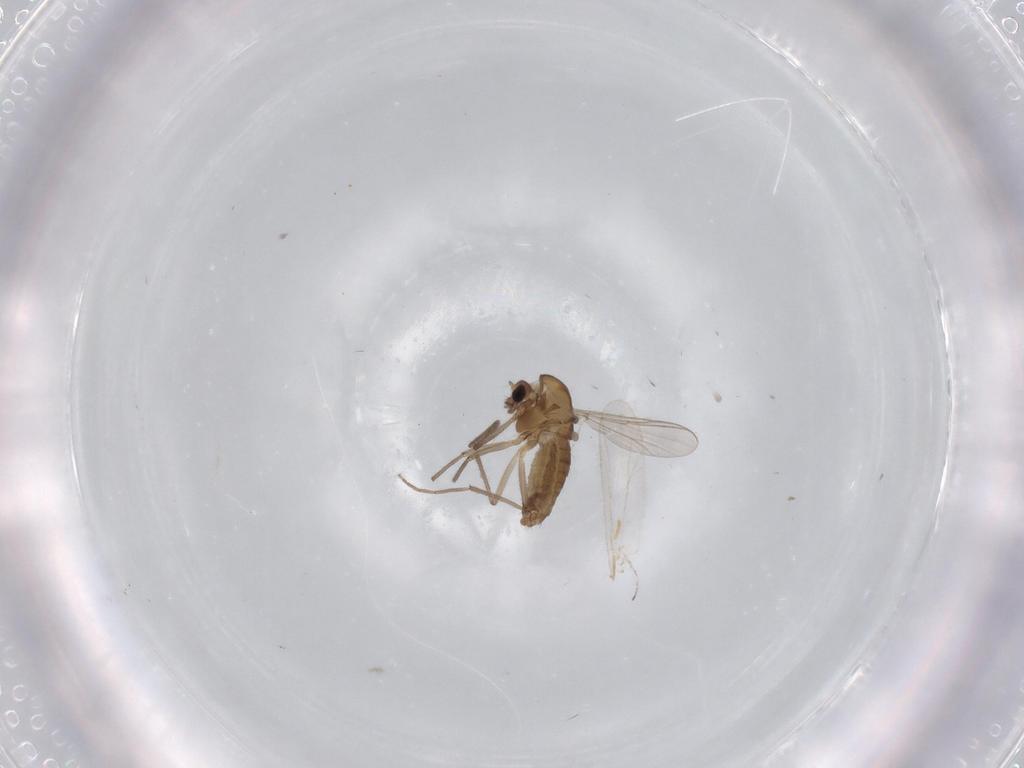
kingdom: Animalia
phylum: Arthropoda
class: Insecta
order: Diptera
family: Chironomidae
